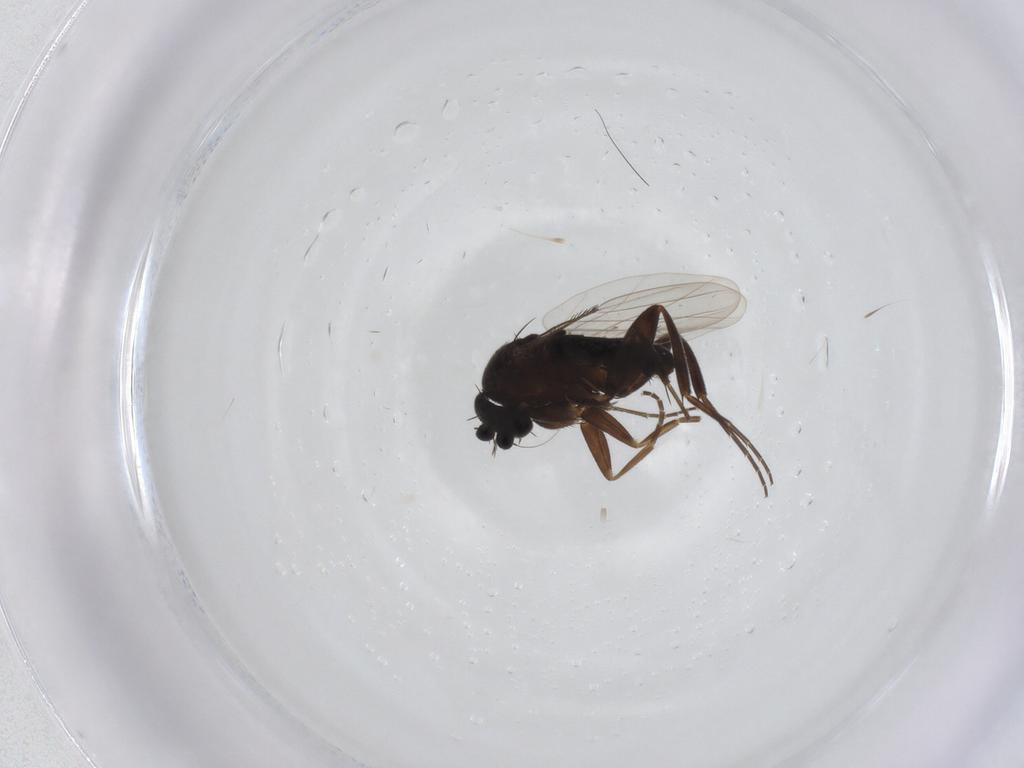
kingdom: Animalia
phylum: Arthropoda
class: Insecta
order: Diptera
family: Phoridae
